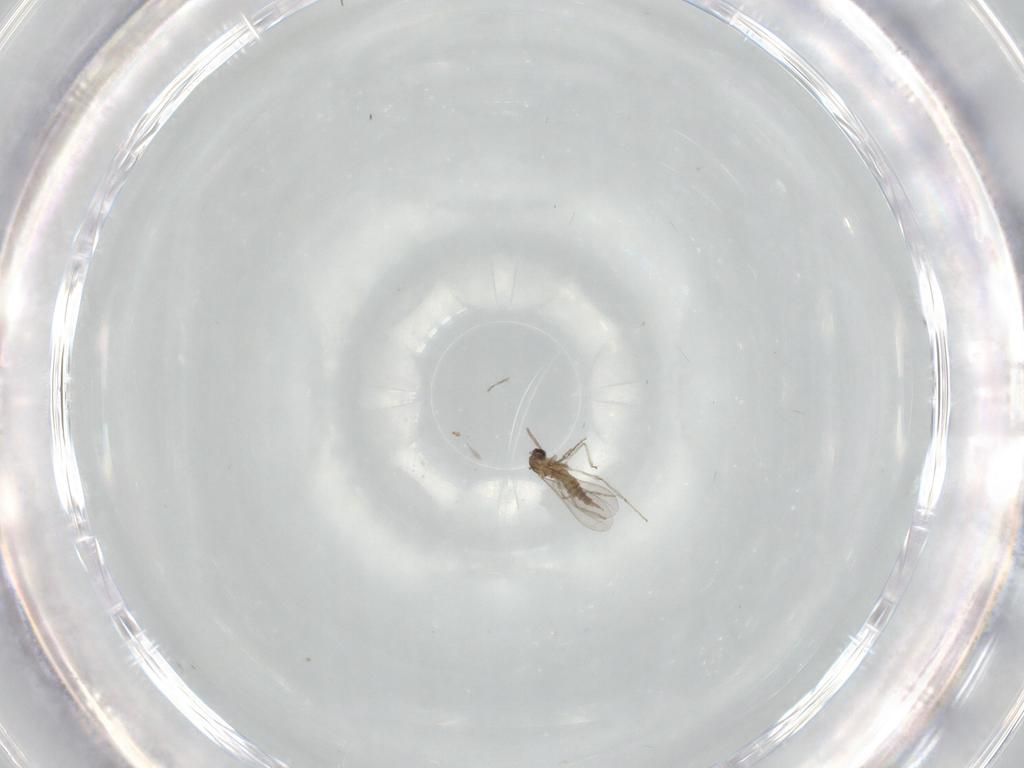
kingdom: Animalia
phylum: Arthropoda
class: Insecta
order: Diptera
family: Cecidomyiidae
